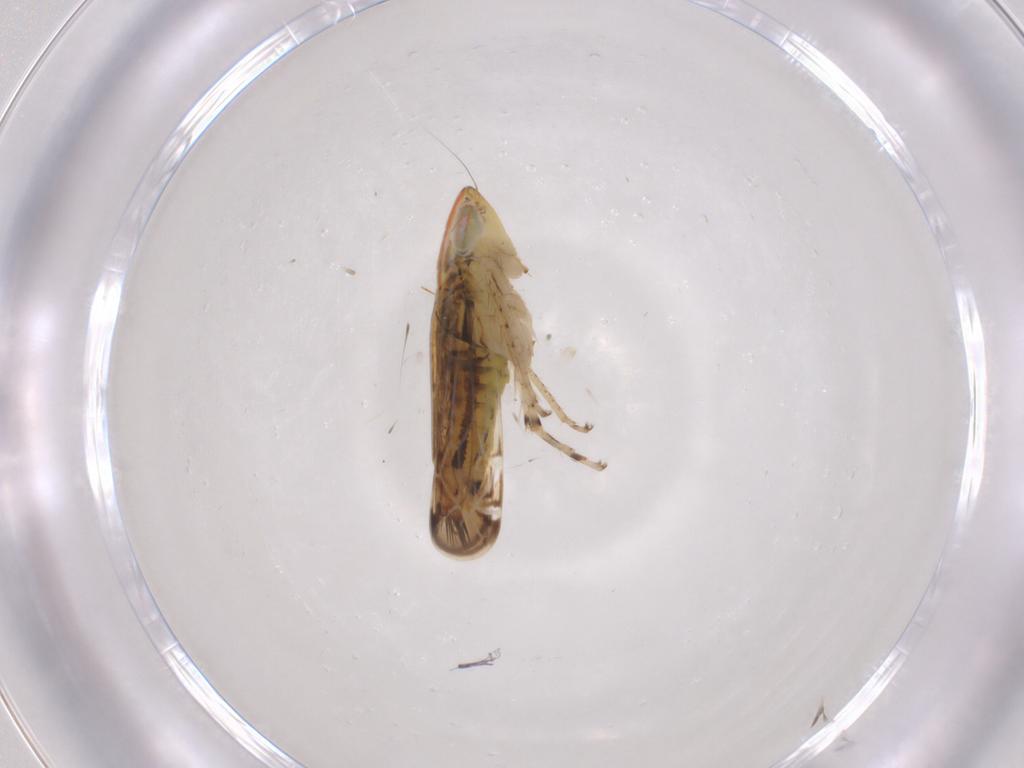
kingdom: Animalia
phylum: Arthropoda
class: Insecta
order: Hemiptera
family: Cicadellidae
